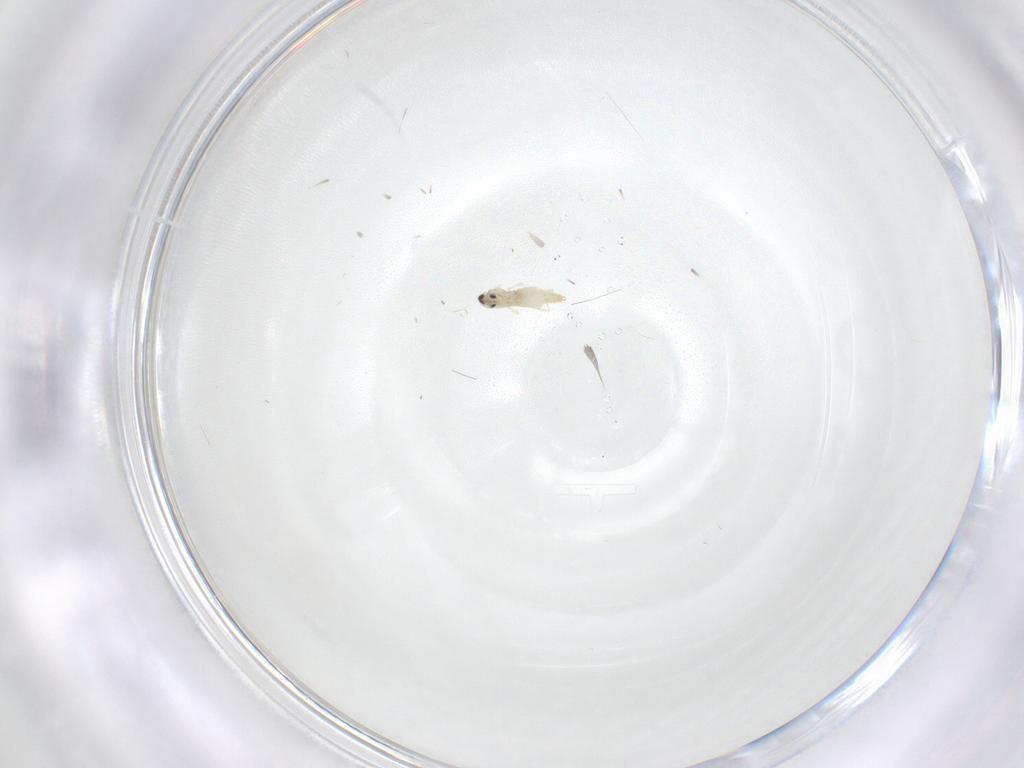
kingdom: Animalia
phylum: Arthropoda
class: Insecta
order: Diptera
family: Cecidomyiidae
